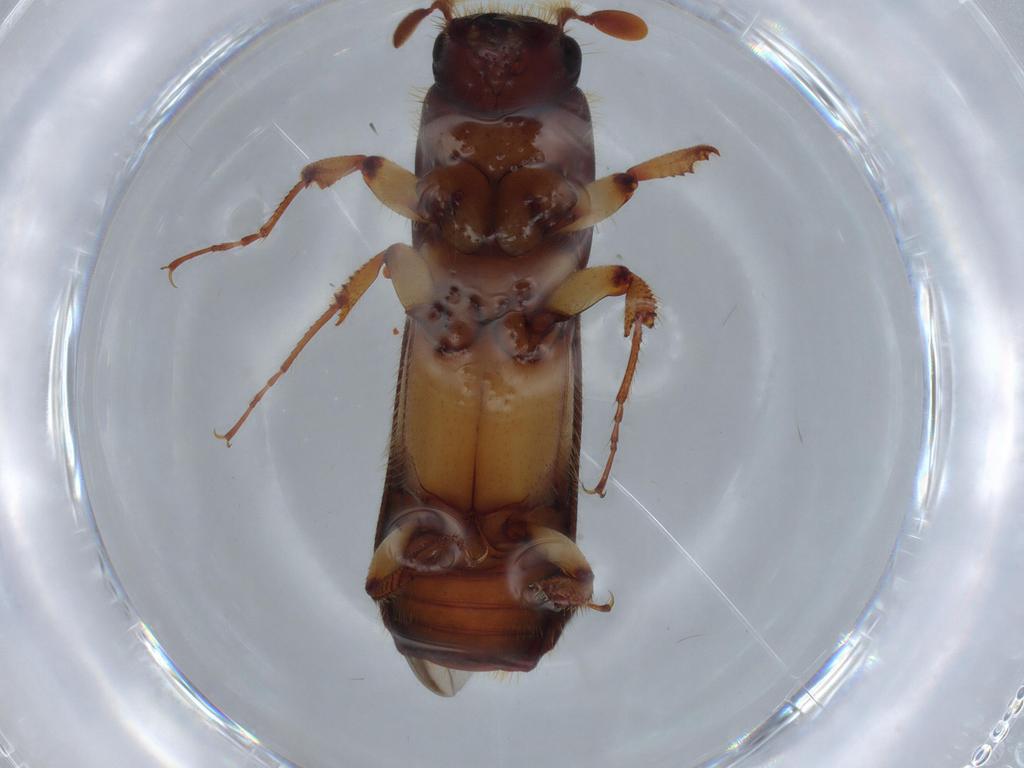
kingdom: Animalia
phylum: Arthropoda
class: Insecta
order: Coleoptera
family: Curculionidae
